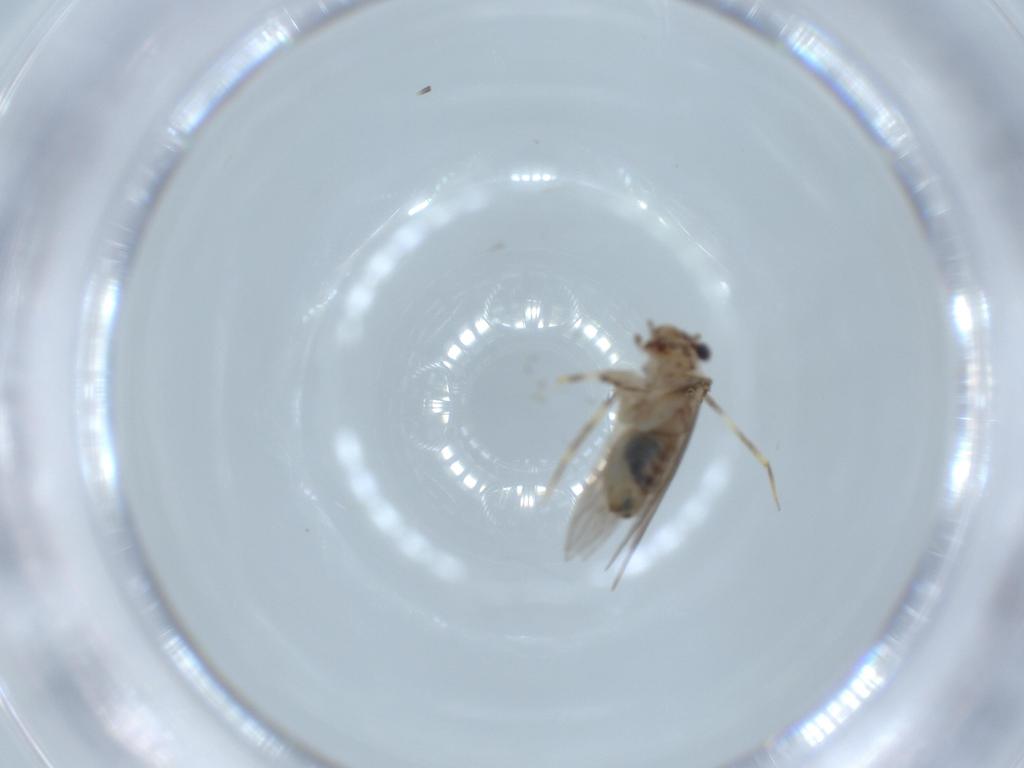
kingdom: Animalia
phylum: Arthropoda
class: Insecta
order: Psocodea
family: Lepidopsocidae
